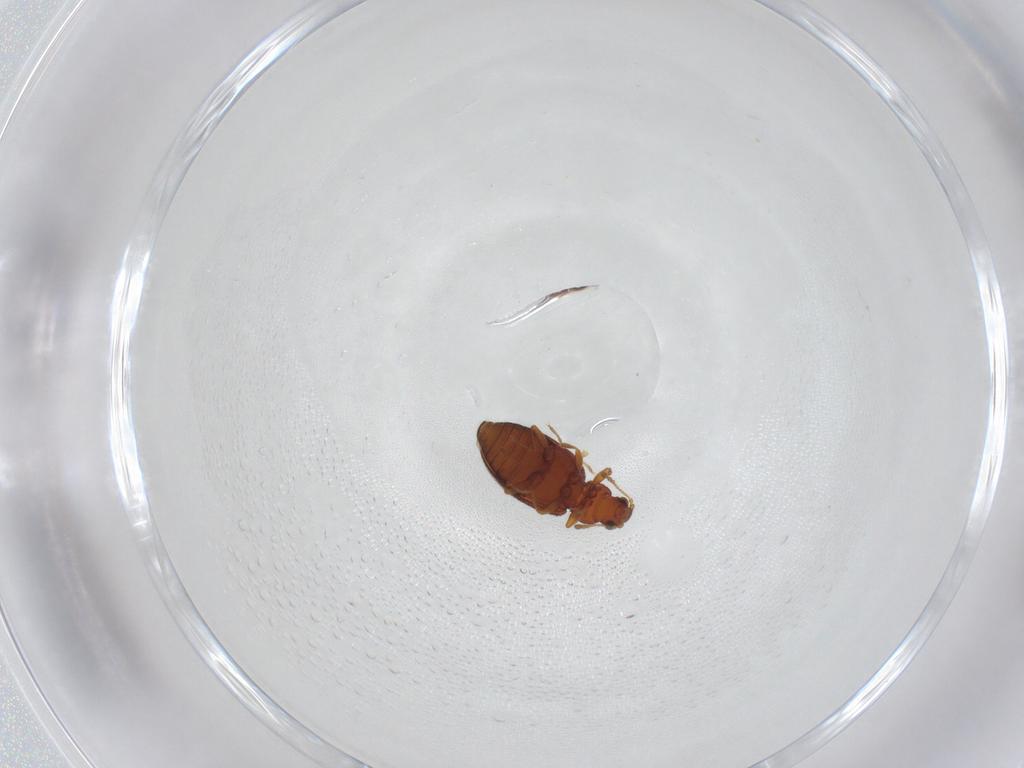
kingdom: Animalia
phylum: Arthropoda
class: Insecta
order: Coleoptera
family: Latridiidae
